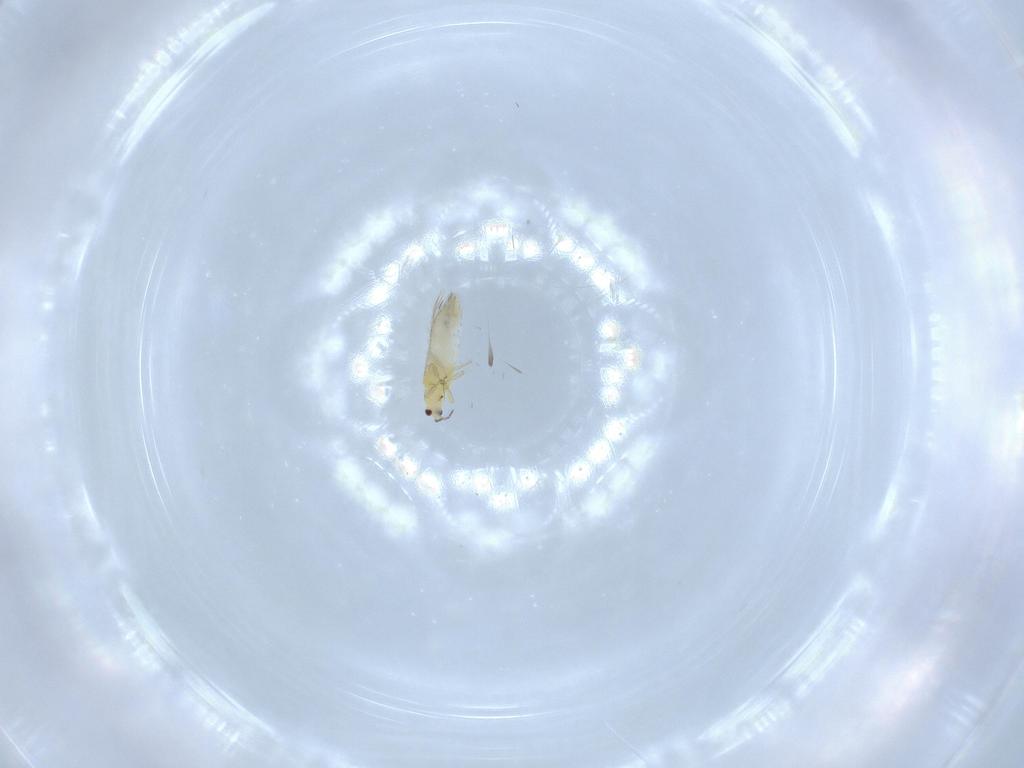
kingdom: Animalia
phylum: Arthropoda
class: Insecta
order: Thysanoptera
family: Thripidae
